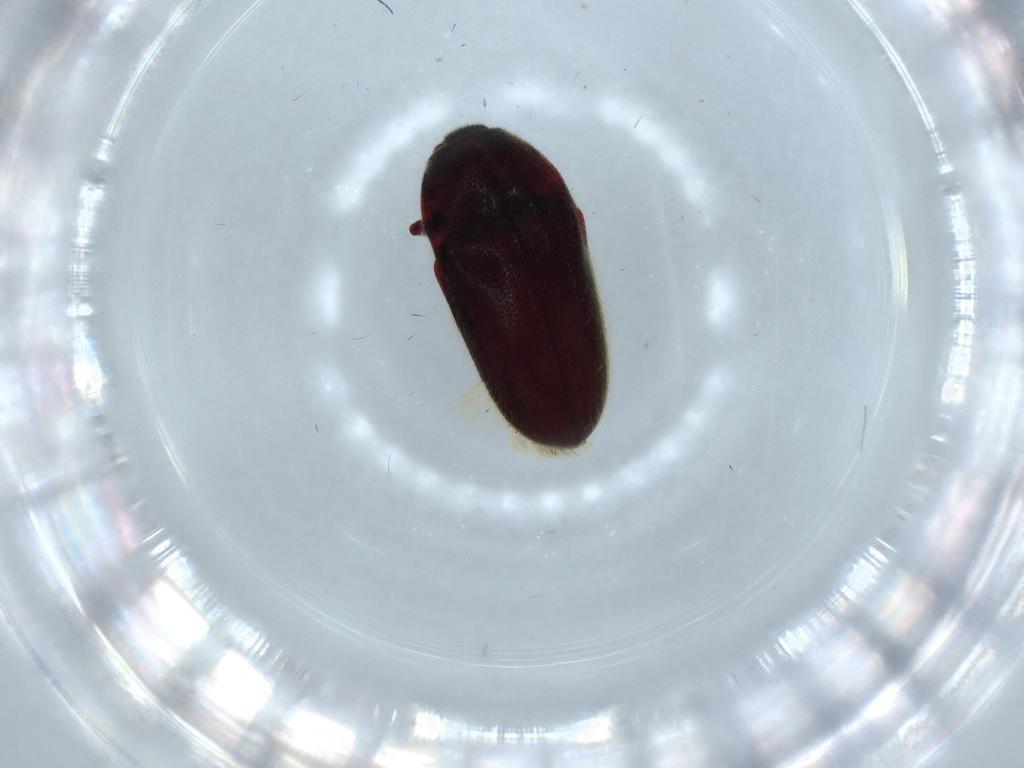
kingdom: Animalia
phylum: Arthropoda
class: Insecta
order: Coleoptera
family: Throscidae
